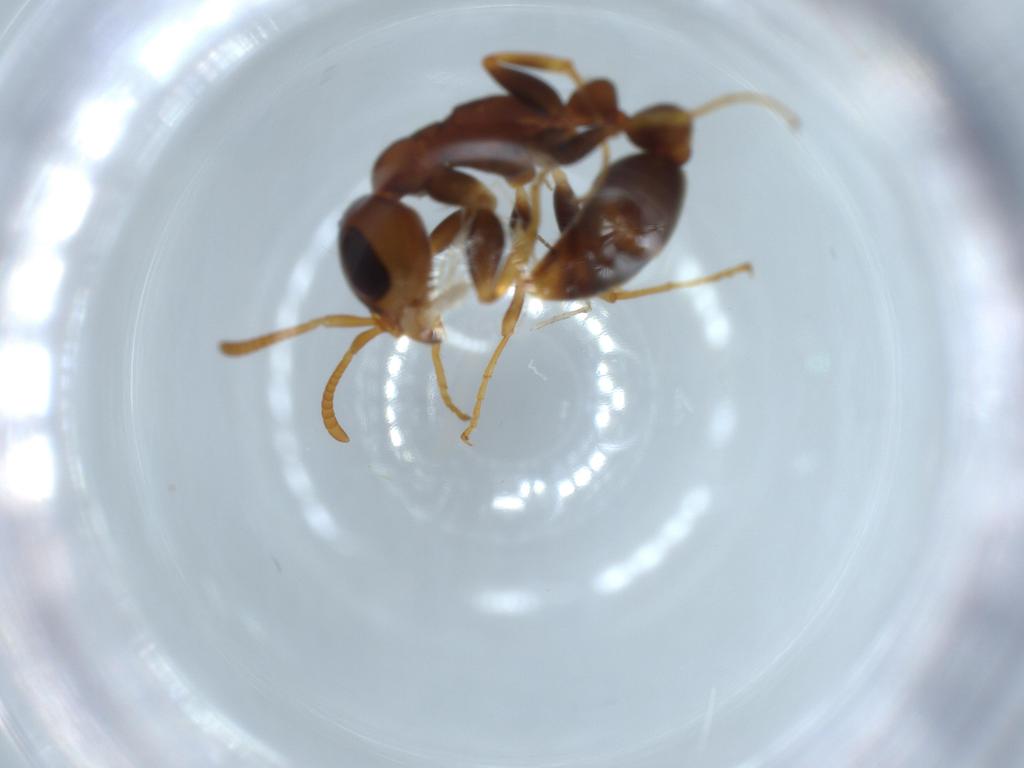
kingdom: Animalia
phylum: Arthropoda
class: Insecta
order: Hymenoptera
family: Formicidae
